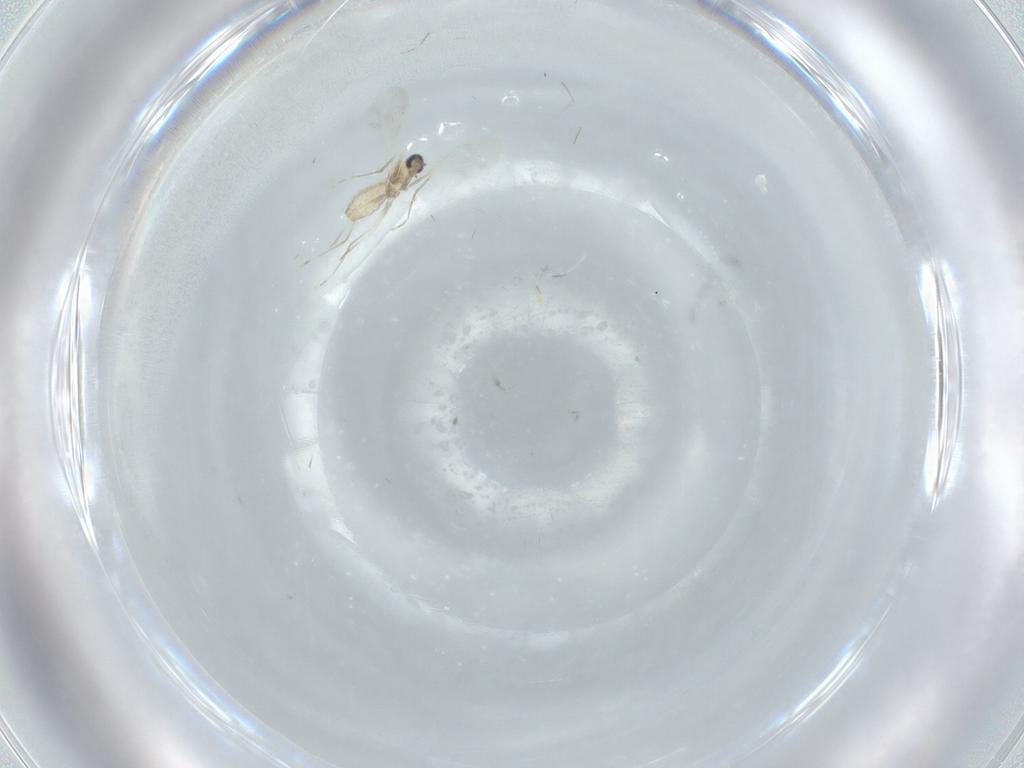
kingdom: Animalia
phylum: Arthropoda
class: Insecta
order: Diptera
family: Cecidomyiidae
